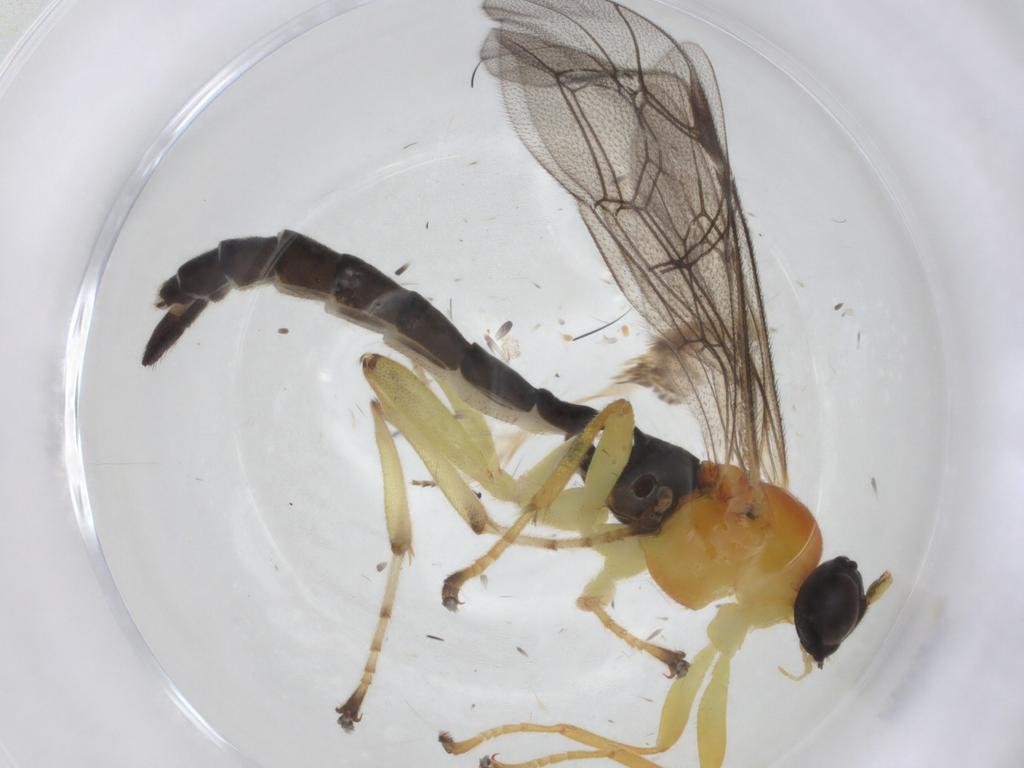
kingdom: Animalia
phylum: Arthropoda
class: Insecta
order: Hymenoptera
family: Ichneumonidae
